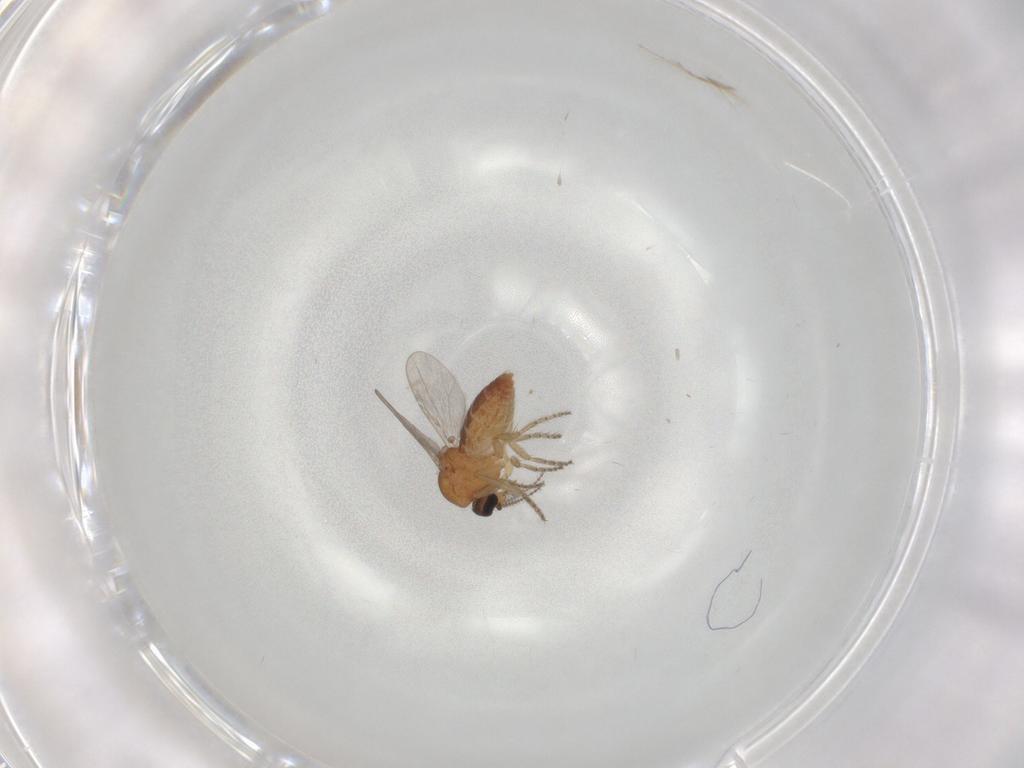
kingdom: Animalia
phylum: Arthropoda
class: Insecta
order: Diptera
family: Ceratopogonidae
